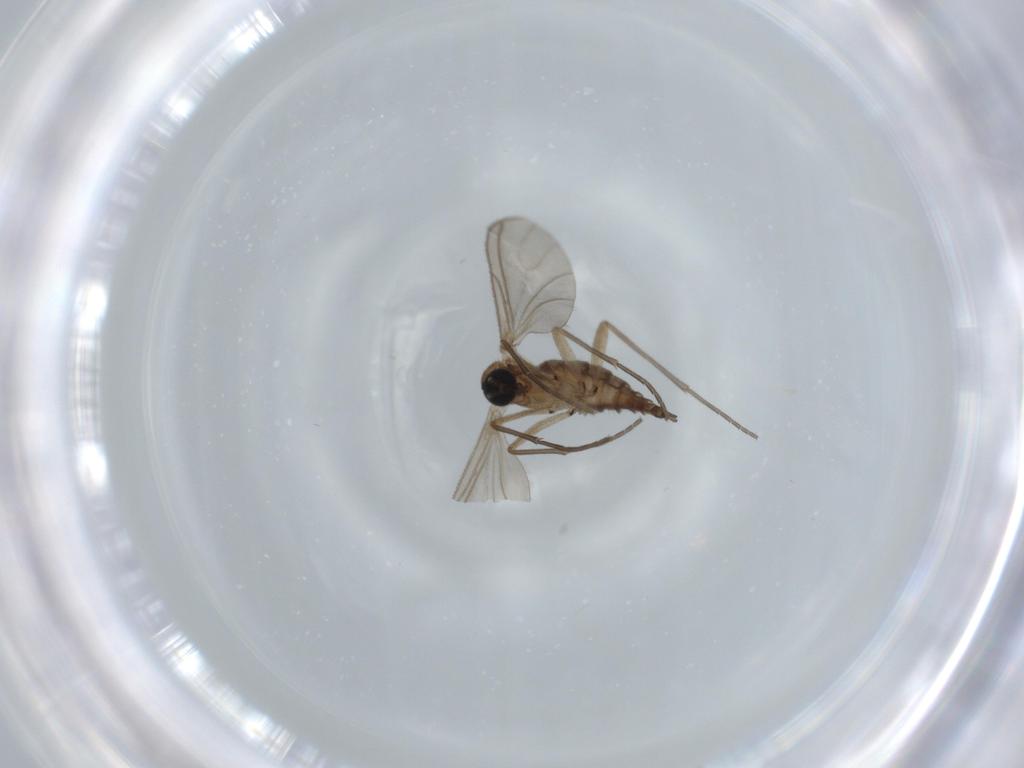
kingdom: Animalia
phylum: Arthropoda
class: Insecta
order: Diptera
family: Sciaridae
